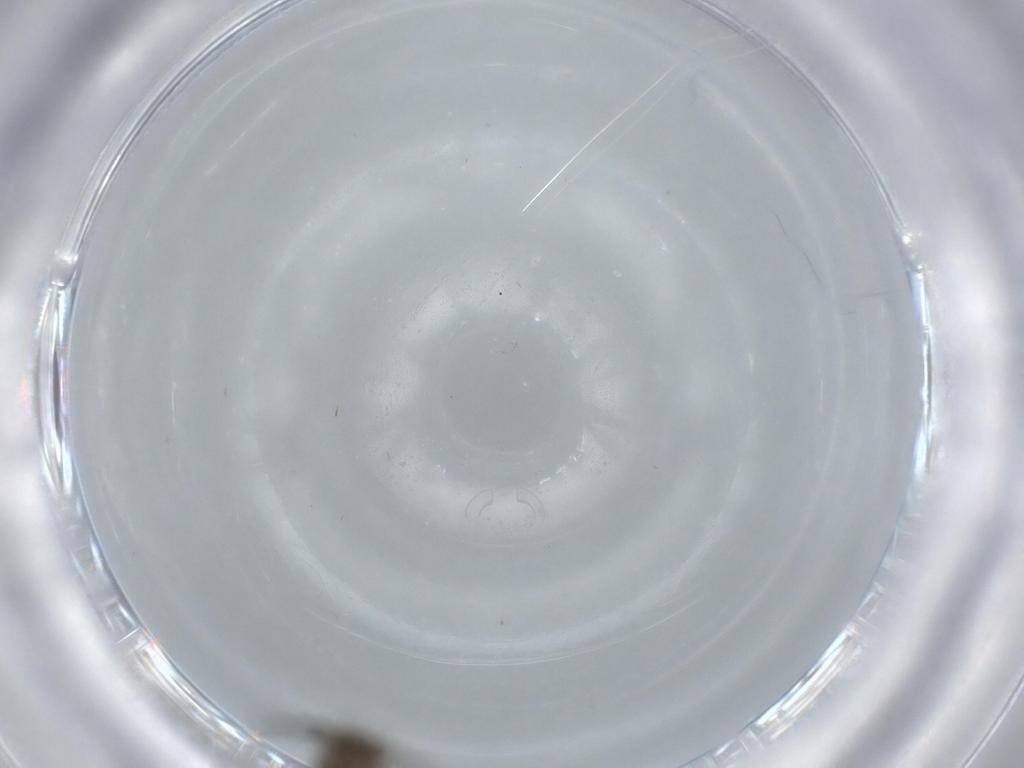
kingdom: Animalia
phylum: Arthropoda
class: Insecta
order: Diptera
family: Sciaridae
